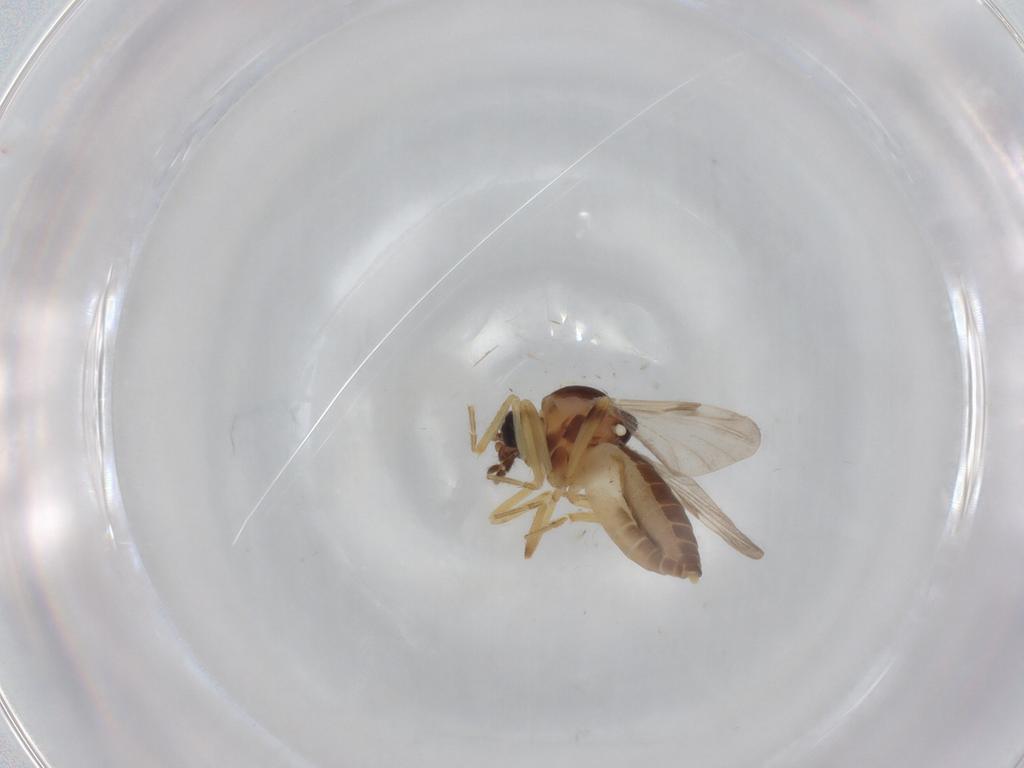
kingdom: Animalia
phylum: Arthropoda
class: Insecta
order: Diptera
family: Ceratopogonidae
